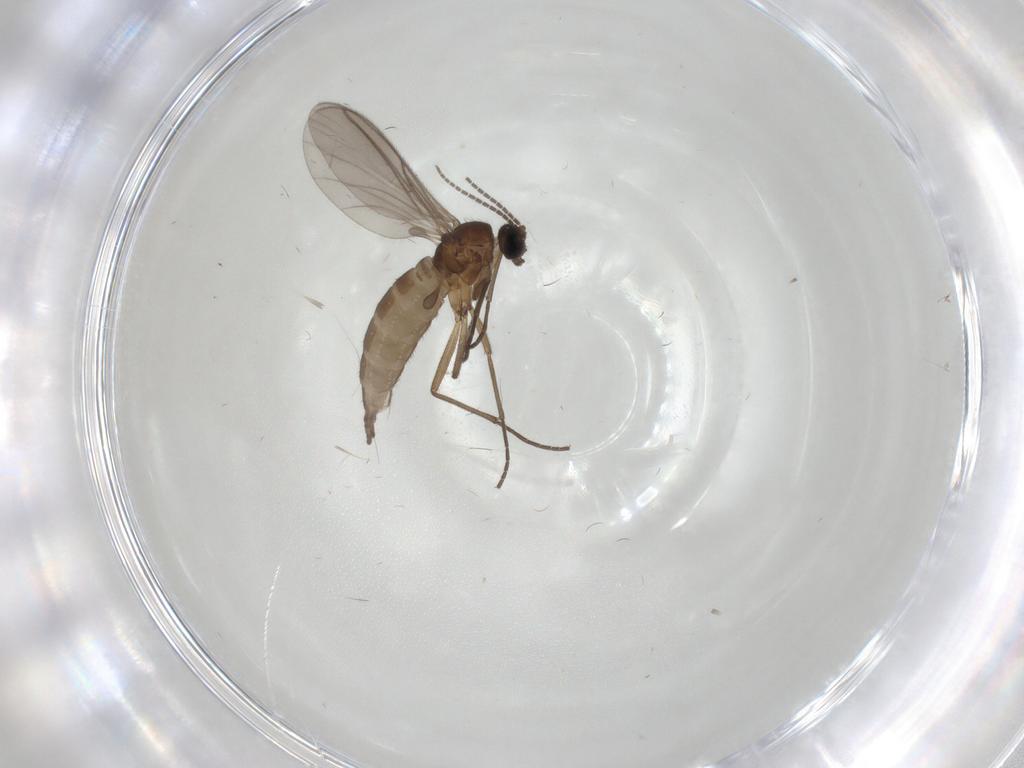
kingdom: Animalia
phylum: Arthropoda
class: Insecta
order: Diptera
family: Sciaridae
